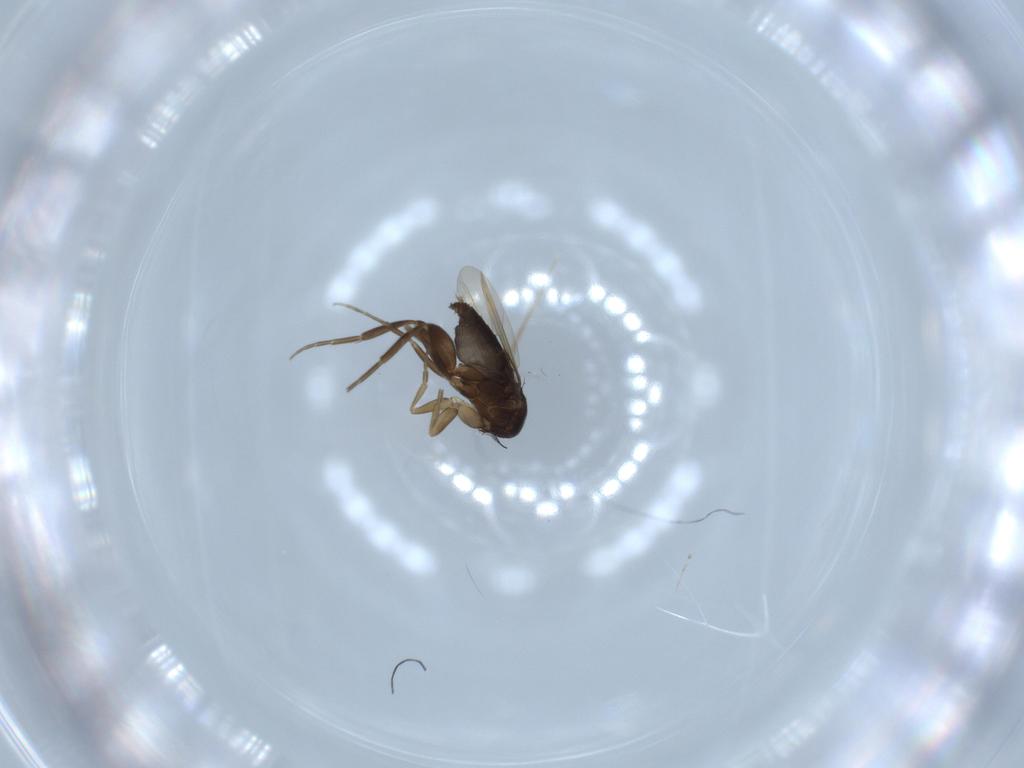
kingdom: Animalia
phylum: Arthropoda
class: Insecta
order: Diptera
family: Phoridae
